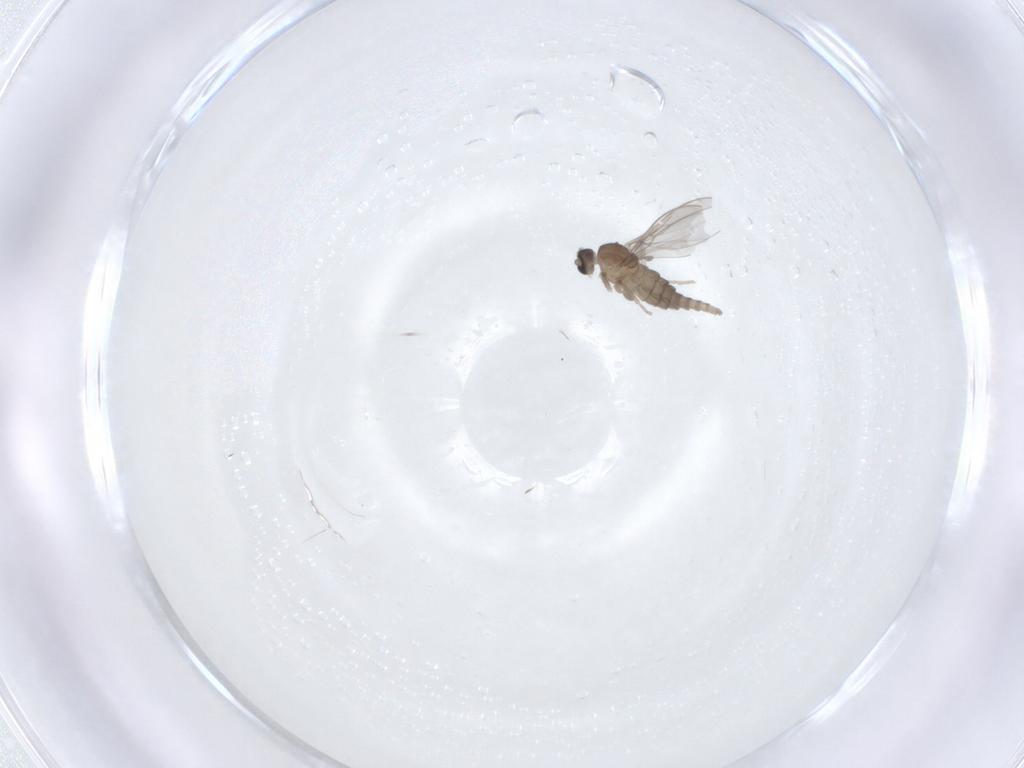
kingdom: Animalia
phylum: Arthropoda
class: Insecta
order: Diptera
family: Cecidomyiidae
